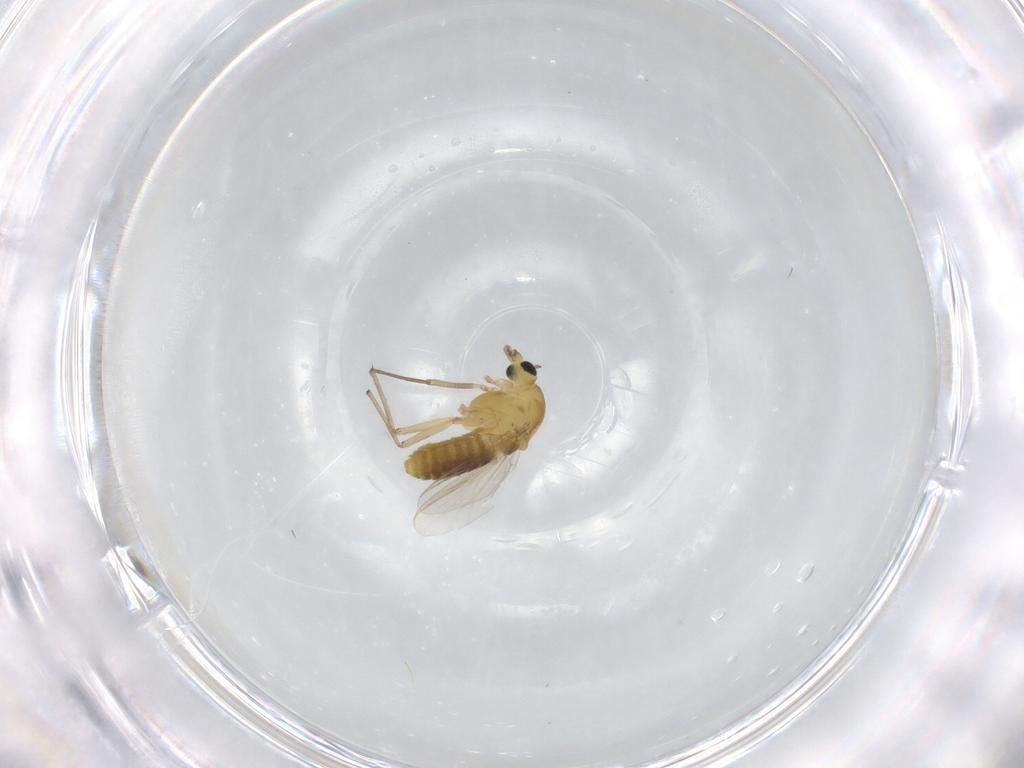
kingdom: Animalia
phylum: Arthropoda
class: Insecta
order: Diptera
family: Chironomidae
